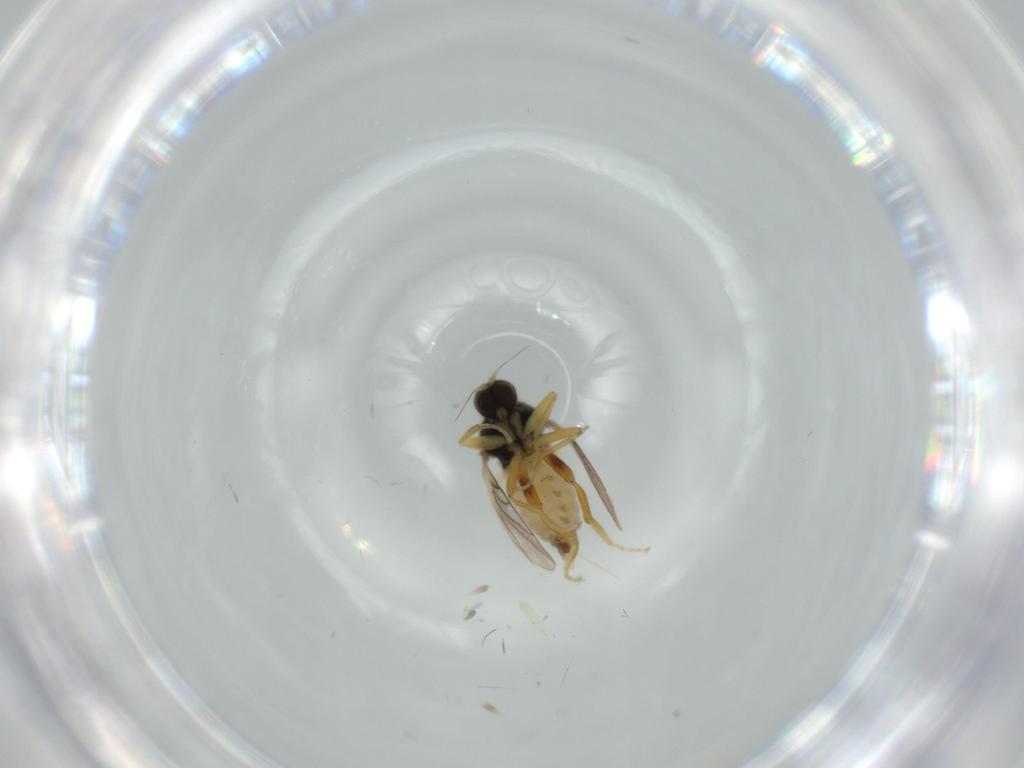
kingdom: Animalia
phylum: Arthropoda
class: Insecta
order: Diptera
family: Hybotidae
